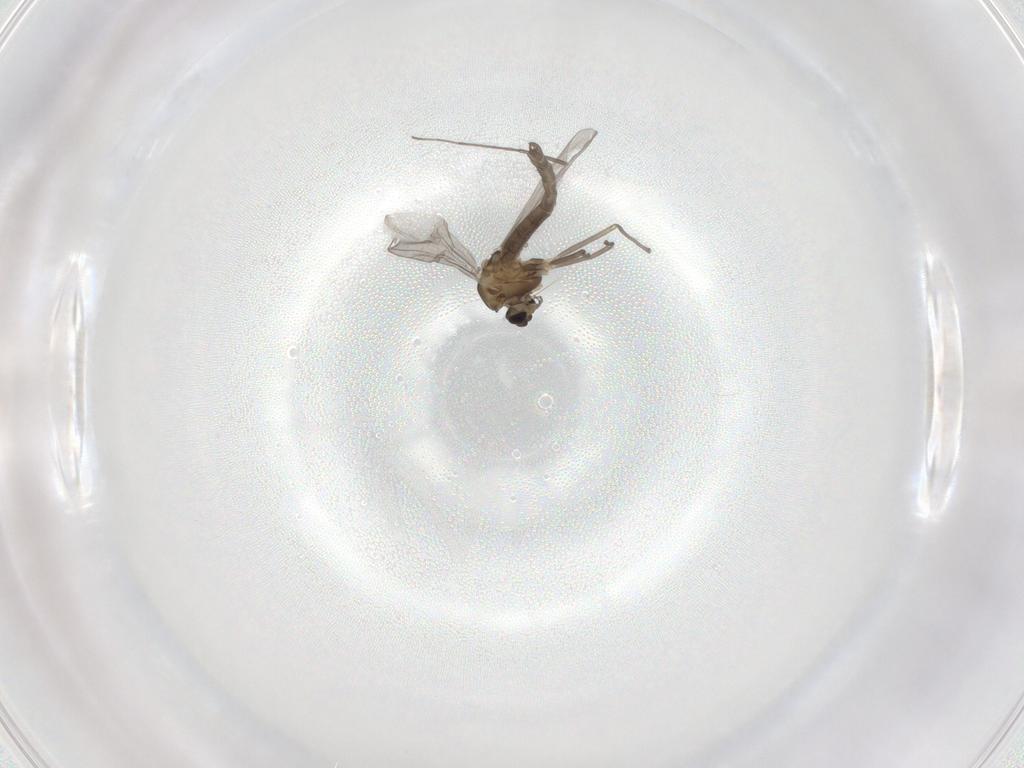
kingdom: Animalia
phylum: Arthropoda
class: Insecta
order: Diptera
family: Chironomidae
